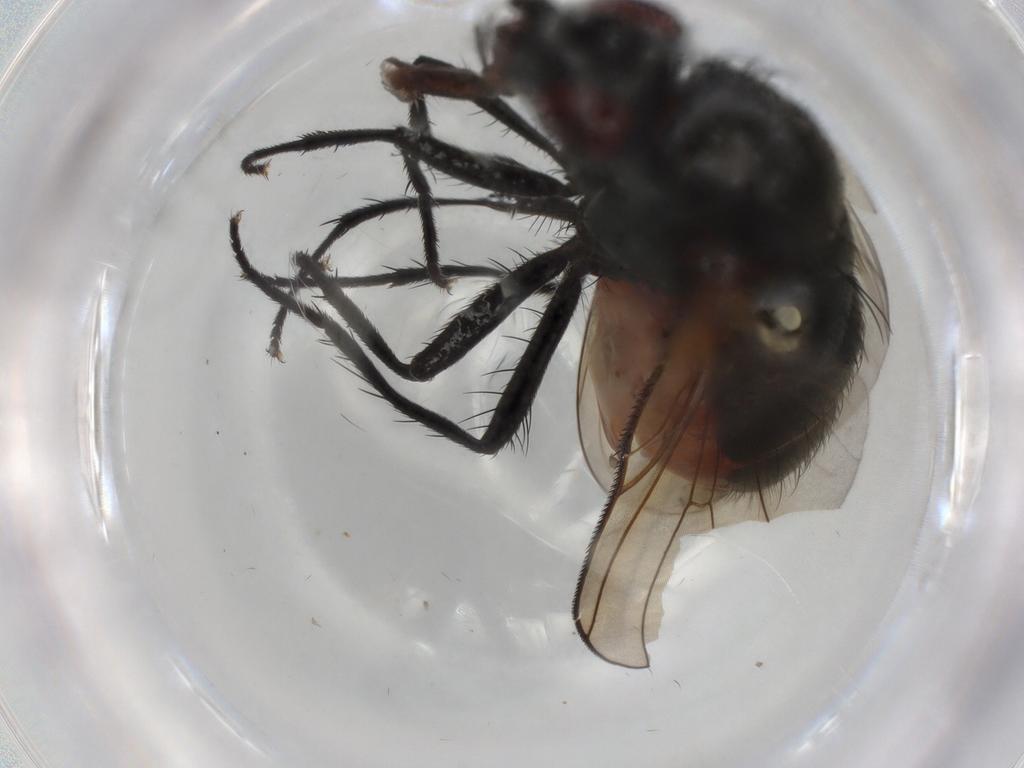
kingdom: Animalia
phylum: Arthropoda
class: Insecta
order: Diptera
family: Anthomyiidae
